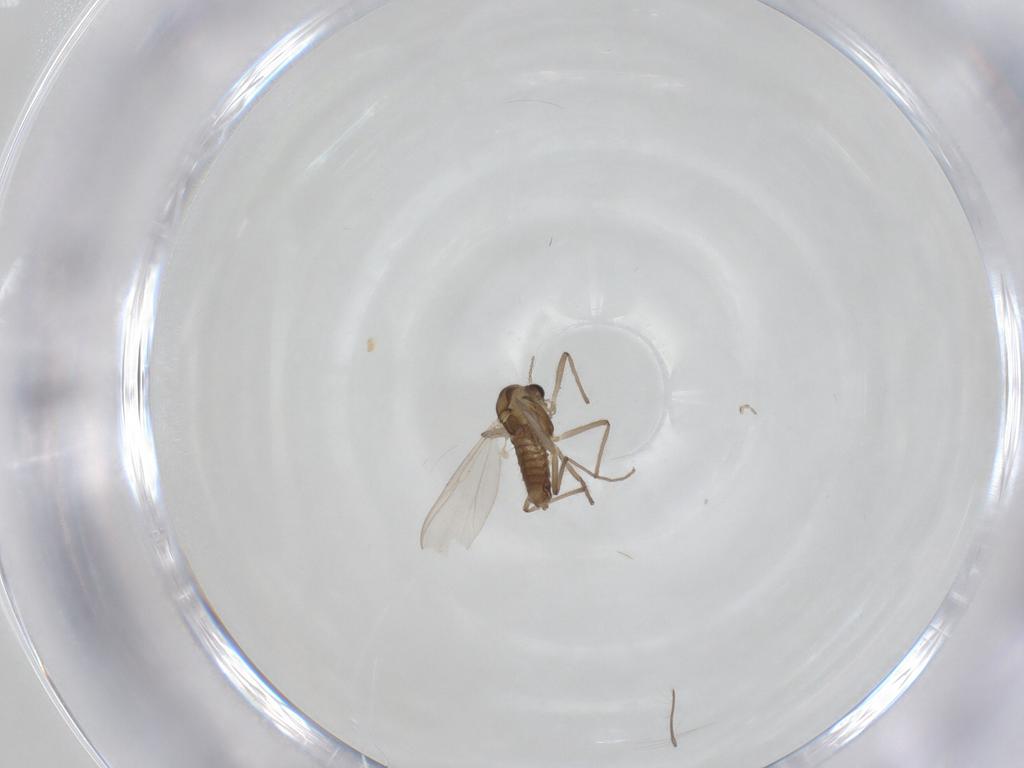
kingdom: Animalia
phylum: Arthropoda
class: Insecta
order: Diptera
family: Chironomidae
